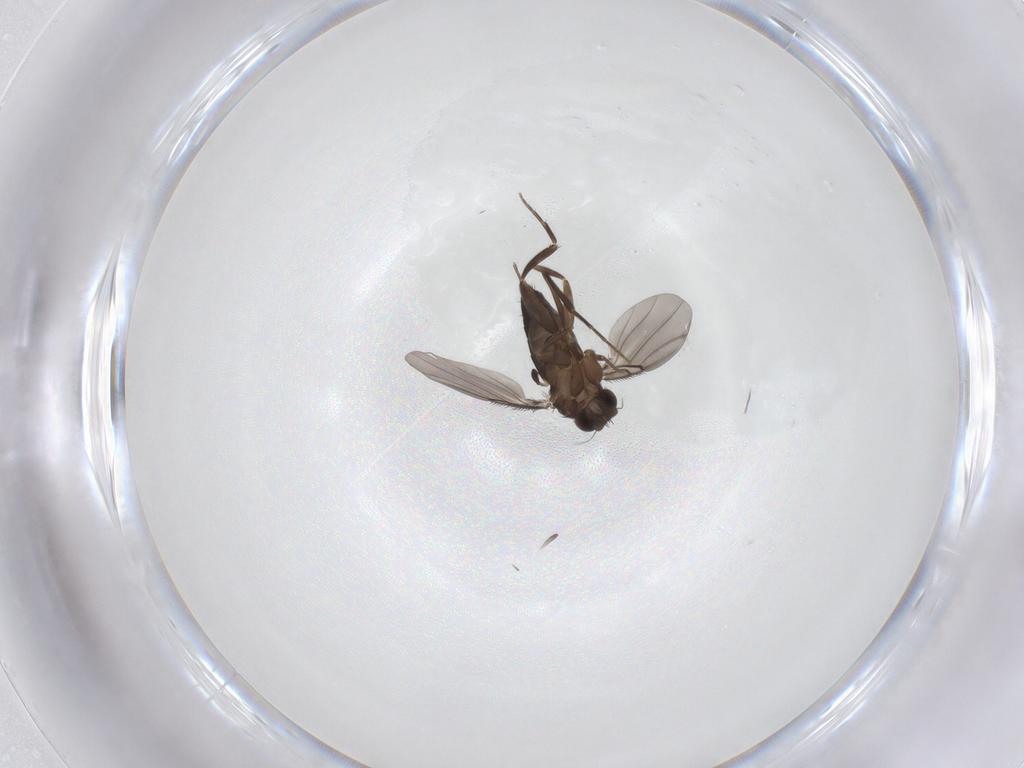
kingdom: Animalia
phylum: Arthropoda
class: Insecta
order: Diptera
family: Phoridae
